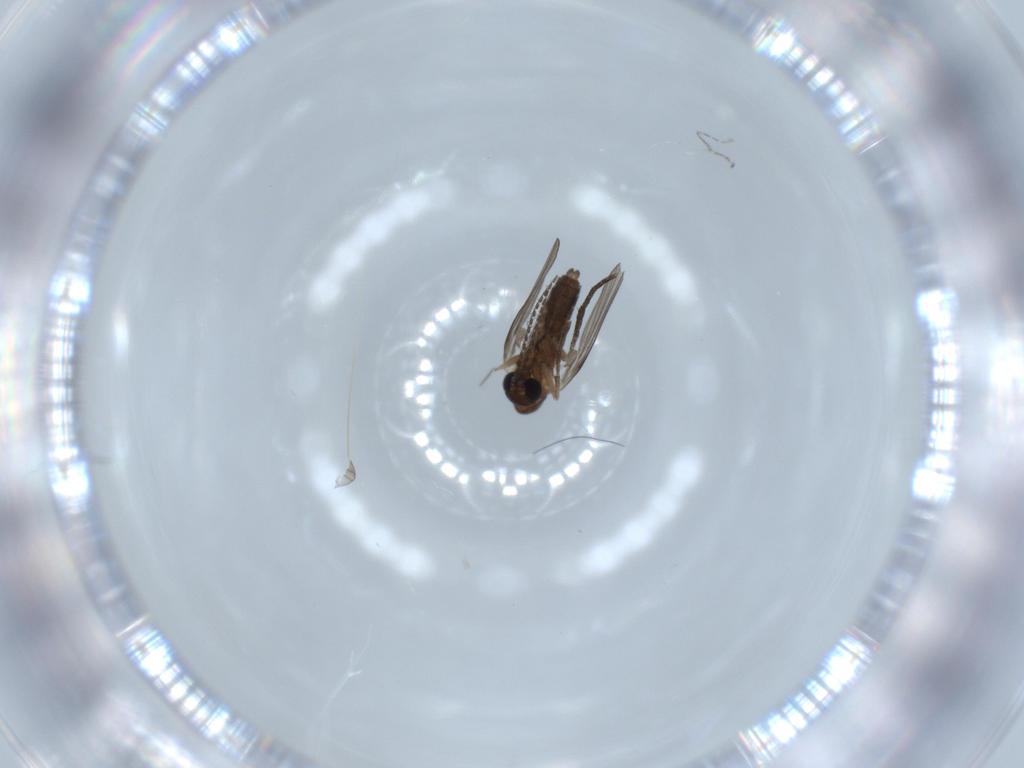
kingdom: Animalia
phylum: Arthropoda
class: Insecta
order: Diptera
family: Psychodidae
